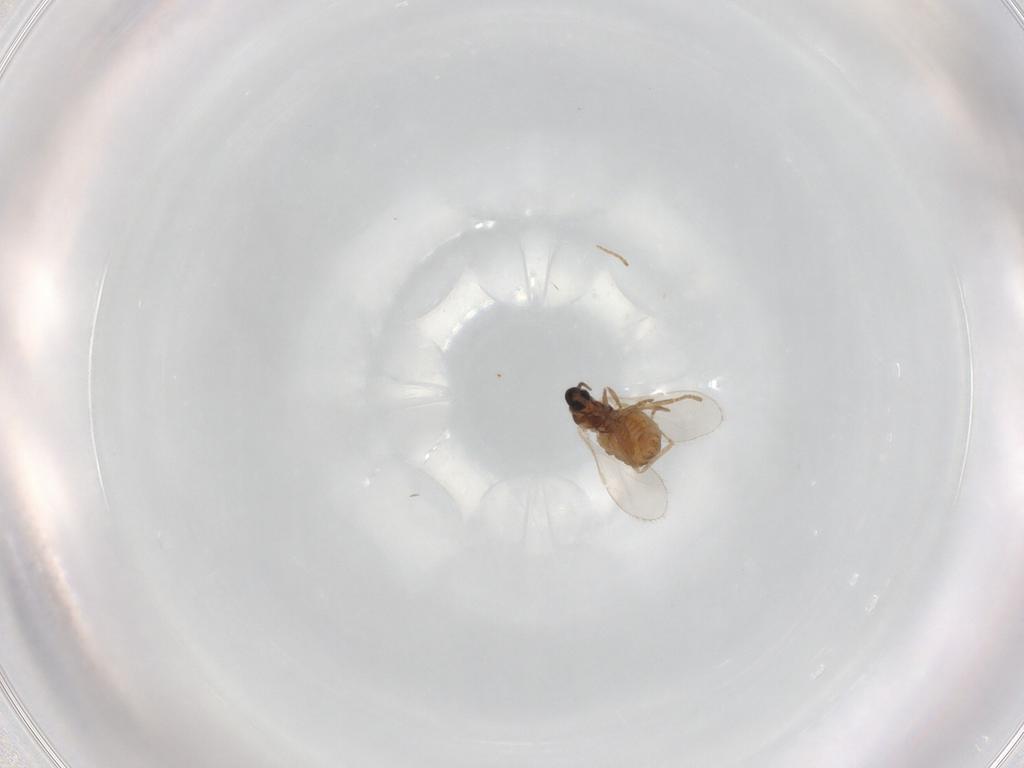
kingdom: Animalia
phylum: Arthropoda
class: Insecta
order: Diptera
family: Cecidomyiidae
